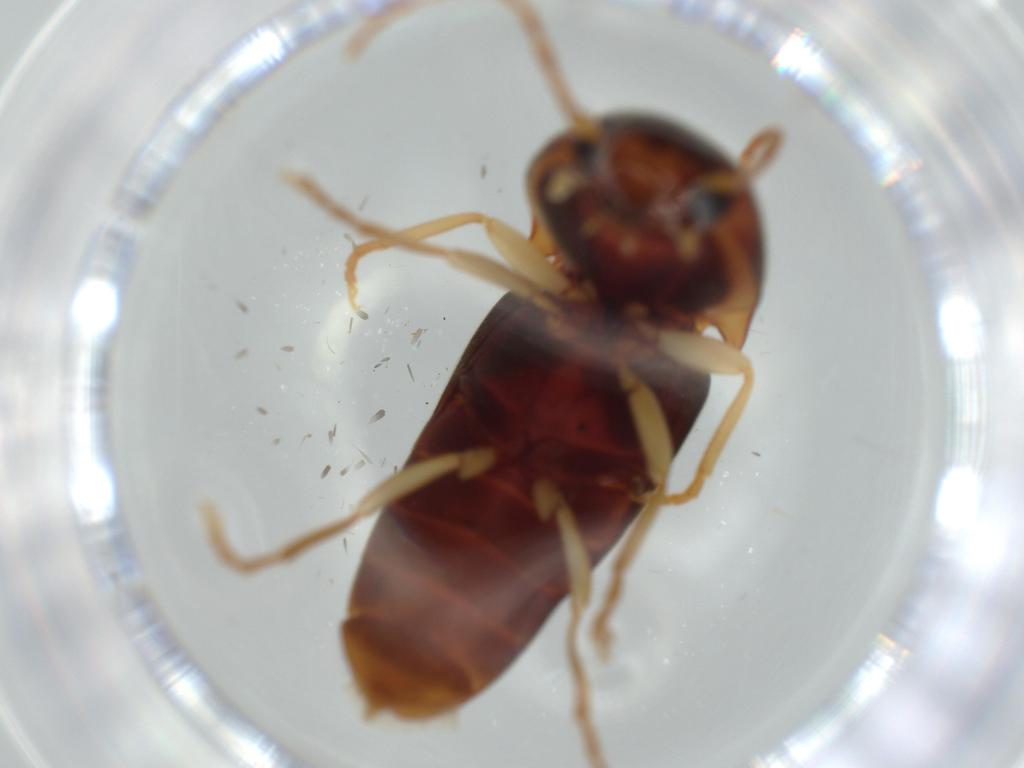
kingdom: Animalia
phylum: Arthropoda
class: Insecta
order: Coleoptera
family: Elateridae
